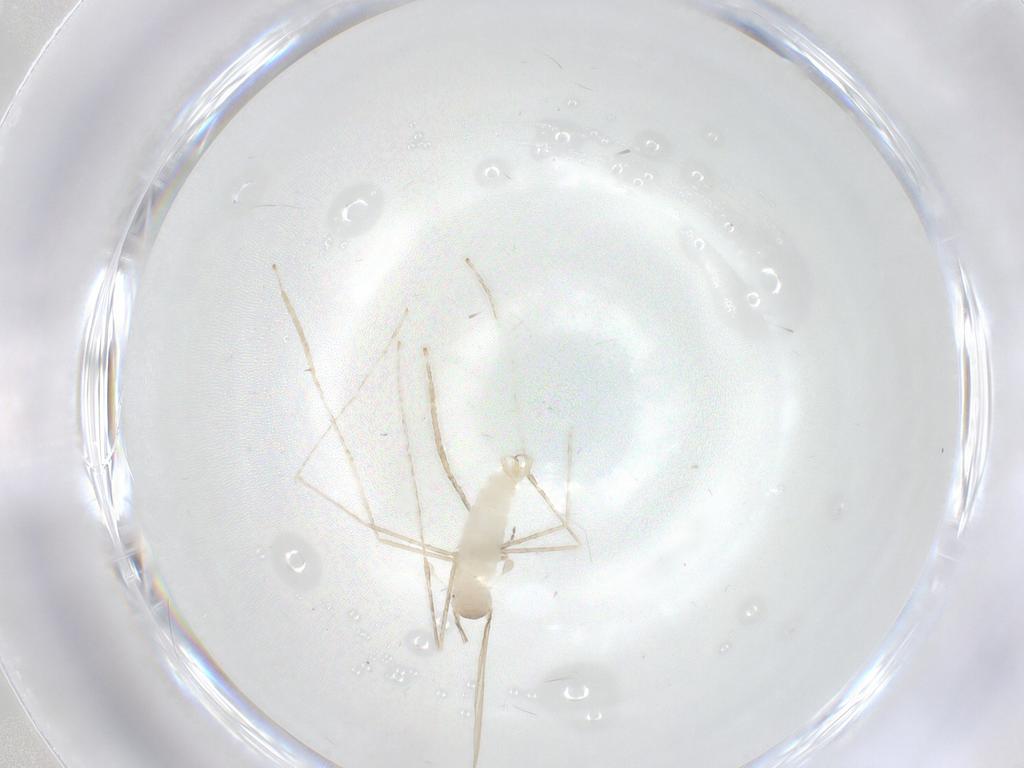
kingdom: Animalia
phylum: Arthropoda
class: Insecta
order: Diptera
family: Cecidomyiidae
